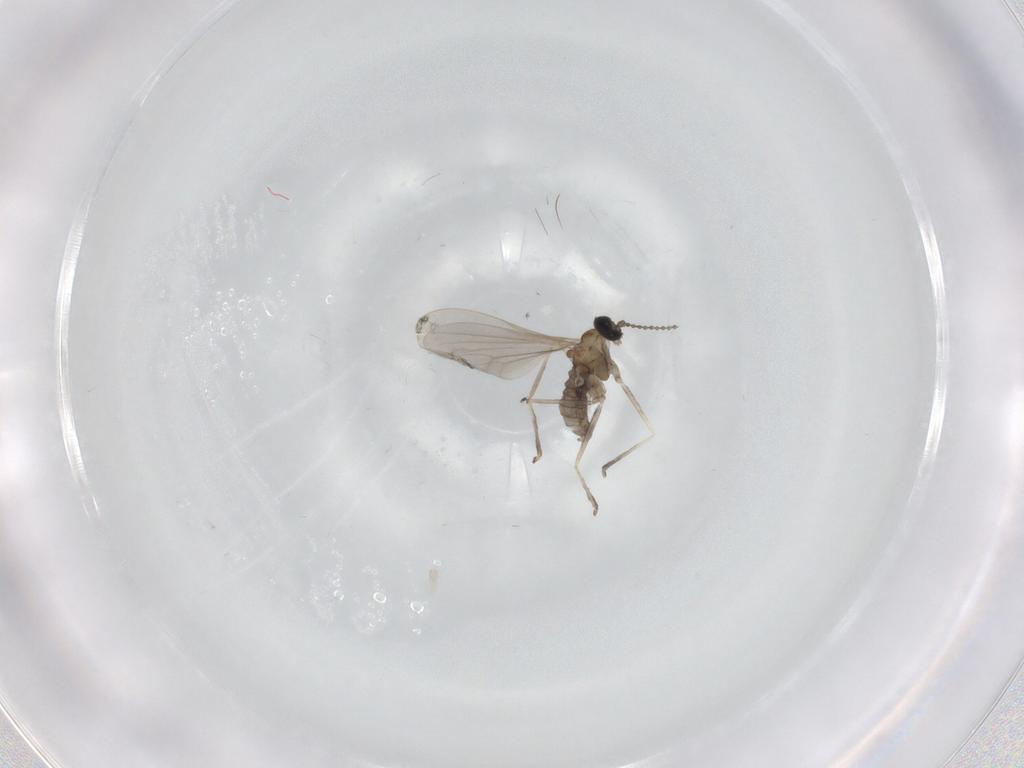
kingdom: Animalia
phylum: Arthropoda
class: Insecta
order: Diptera
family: Cecidomyiidae
